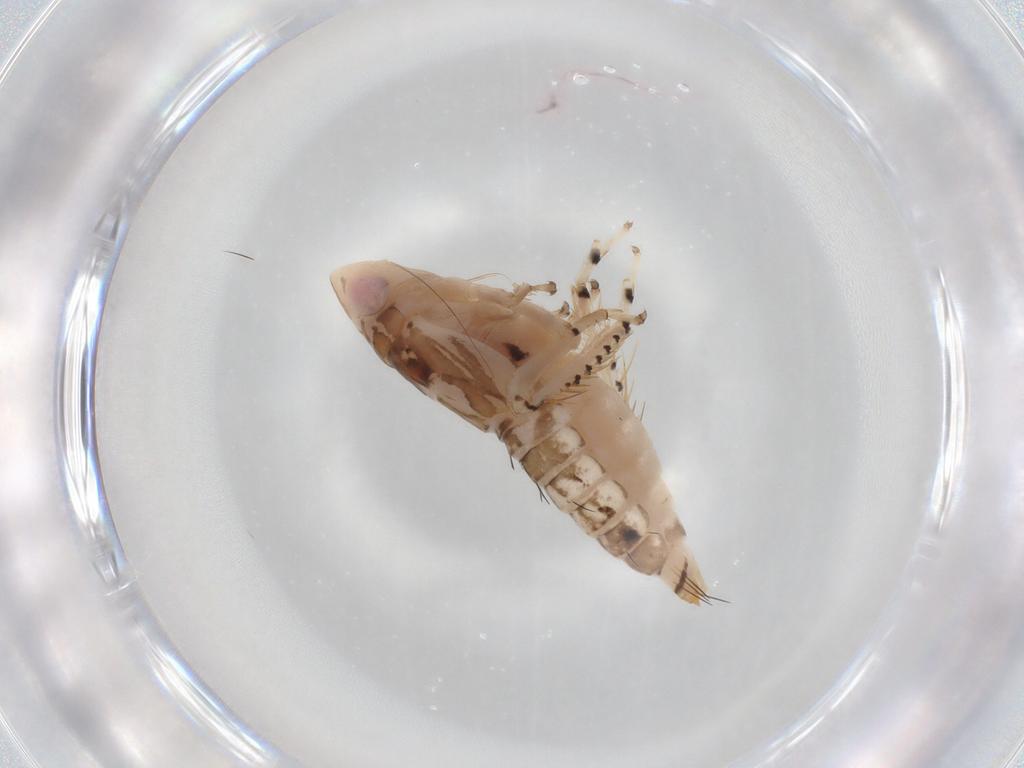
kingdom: Animalia
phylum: Arthropoda
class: Insecta
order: Hemiptera
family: Cicadellidae
